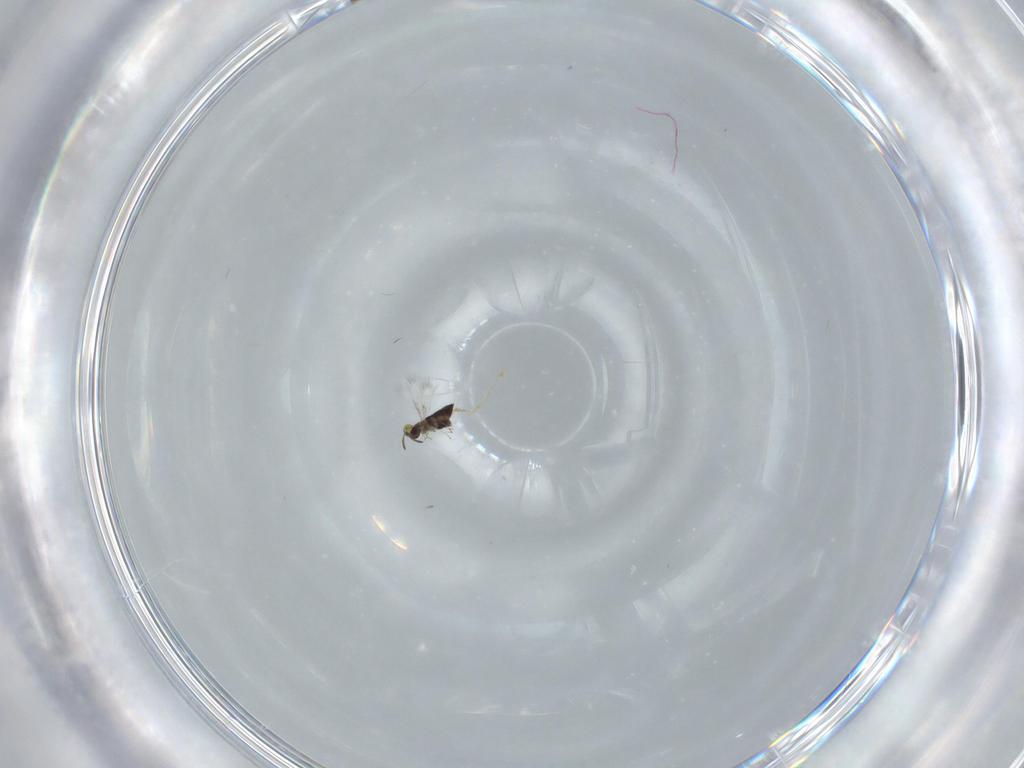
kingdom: Animalia
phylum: Arthropoda
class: Insecta
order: Hymenoptera
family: Signiphoridae
